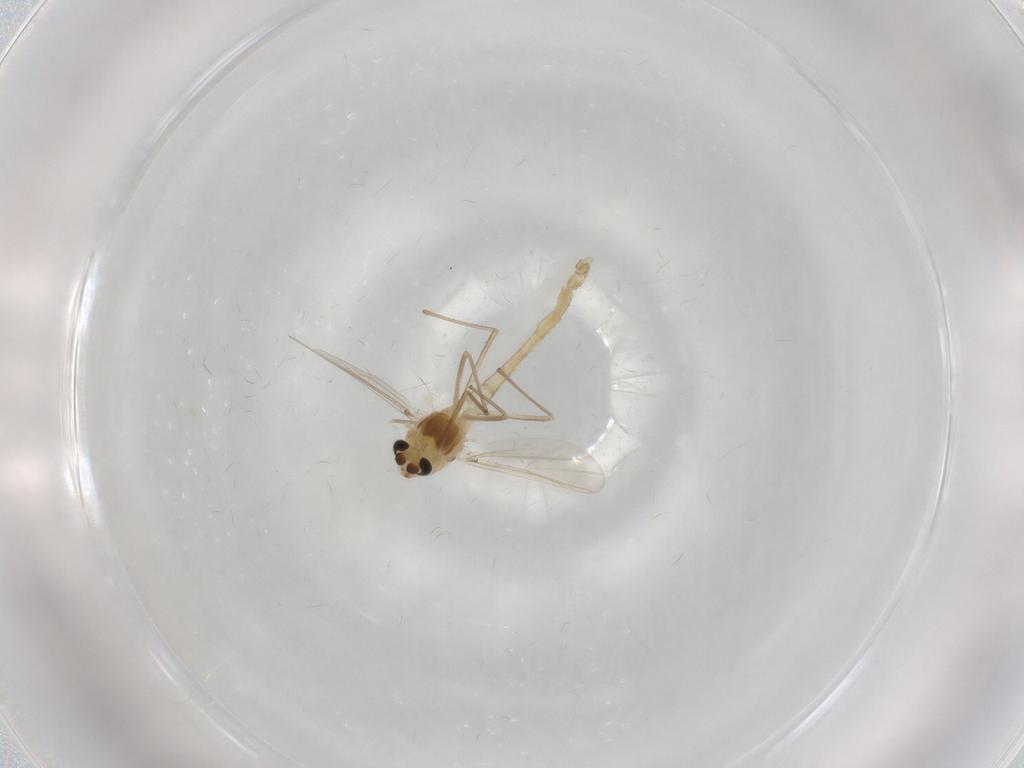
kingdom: Animalia
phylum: Arthropoda
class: Insecta
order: Diptera
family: Chironomidae
